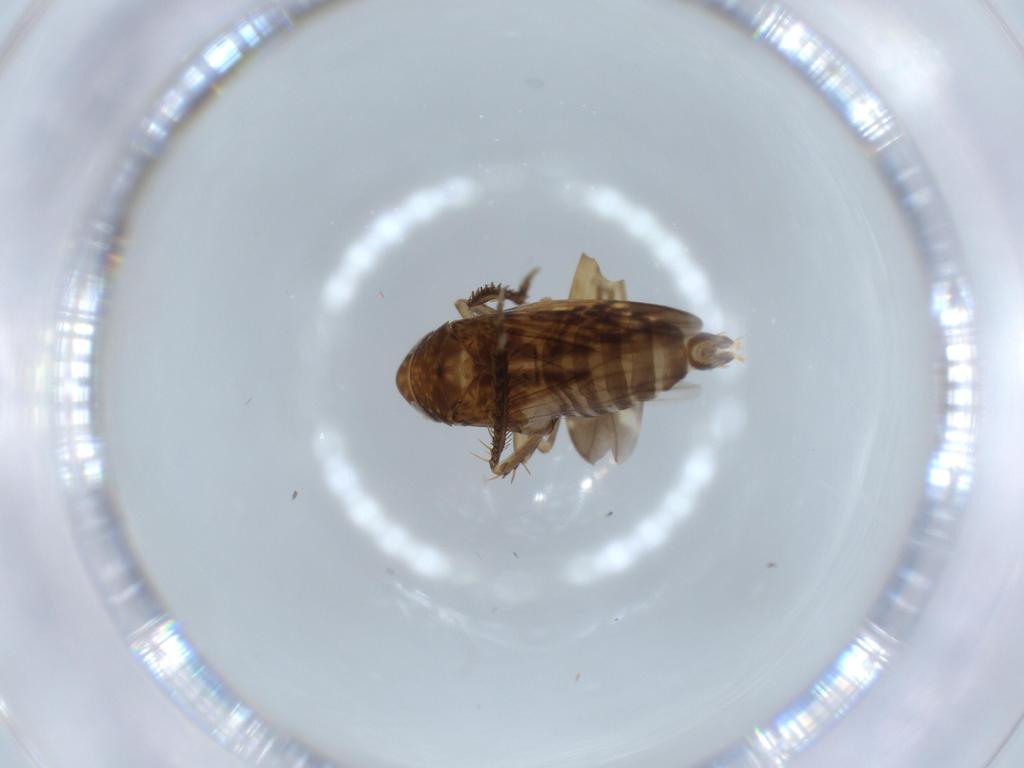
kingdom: Animalia
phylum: Arthropoda
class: Insecta
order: Hemiptera
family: Cicadellidae
